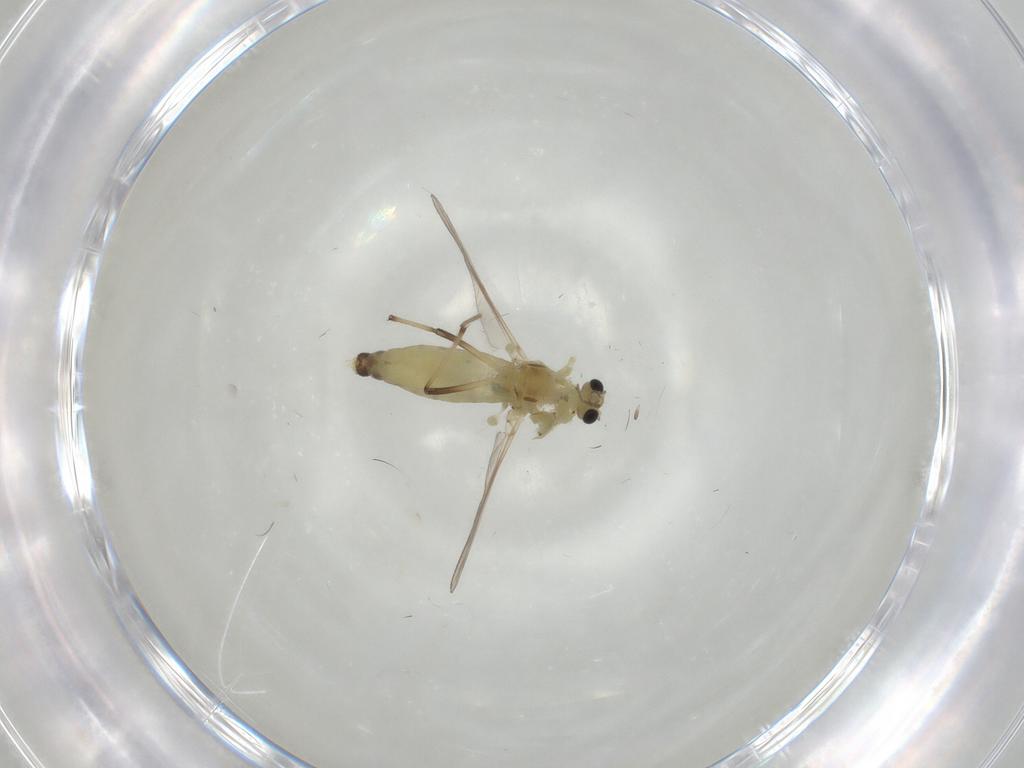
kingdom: Animalia
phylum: Arthropoda
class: Insecta
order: Diptera
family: Chironomidae
